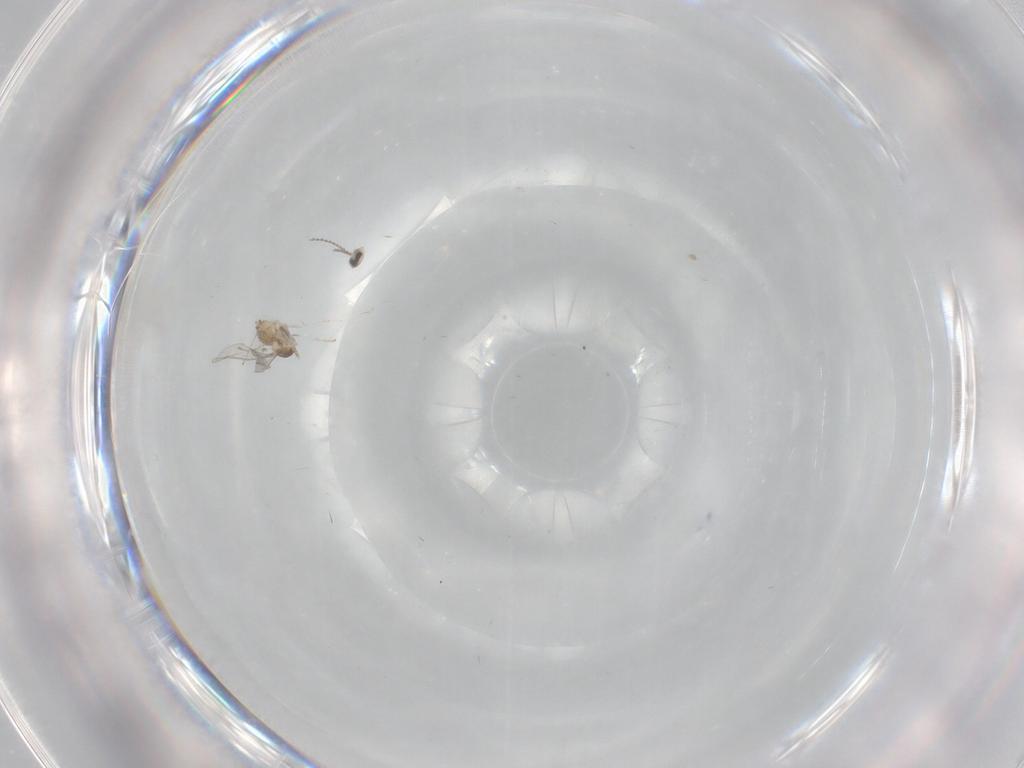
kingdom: Animalia
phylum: Arthropoda
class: Insecta
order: Diptera
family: Cecidomyiidae
